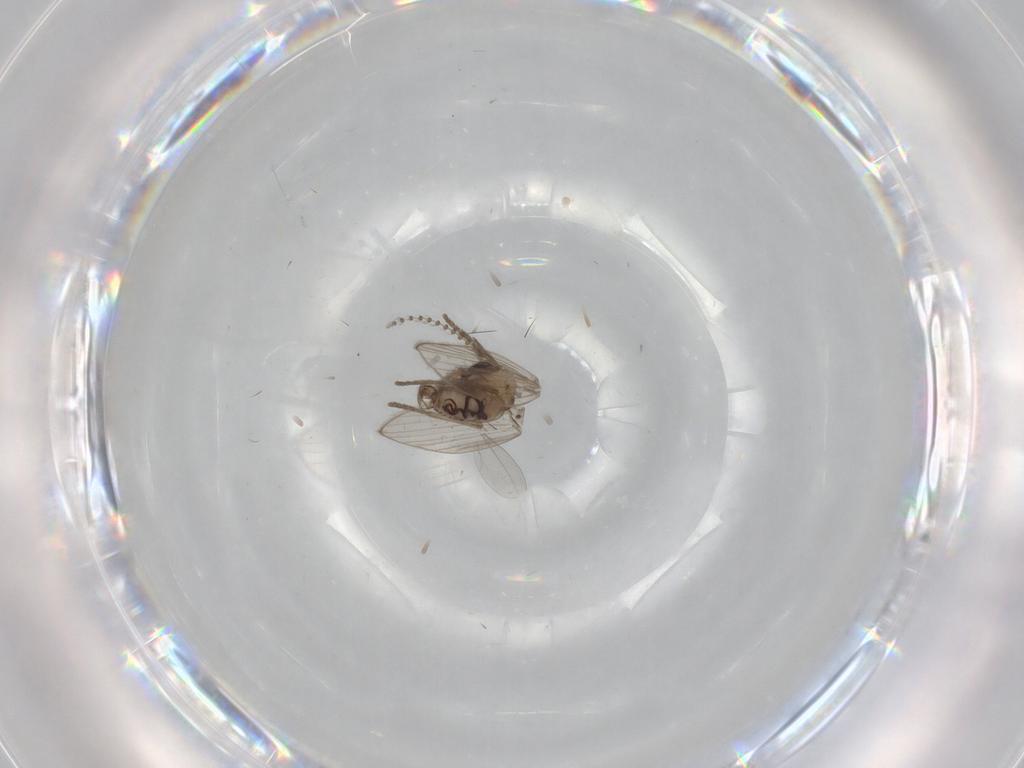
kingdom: Animalia
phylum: Arthropoda
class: Insecta
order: Diptera
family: Psychodidae
